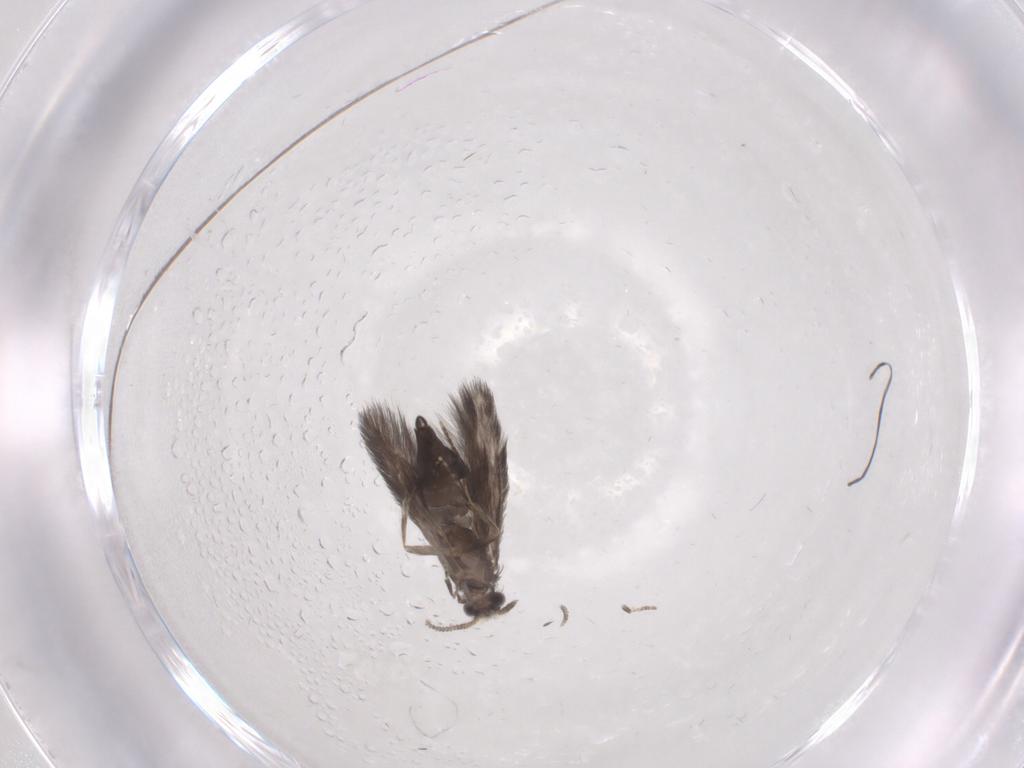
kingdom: Animalia
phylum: Arthropoda
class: Insecta
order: Trichoptera
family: Hydroptilidae
